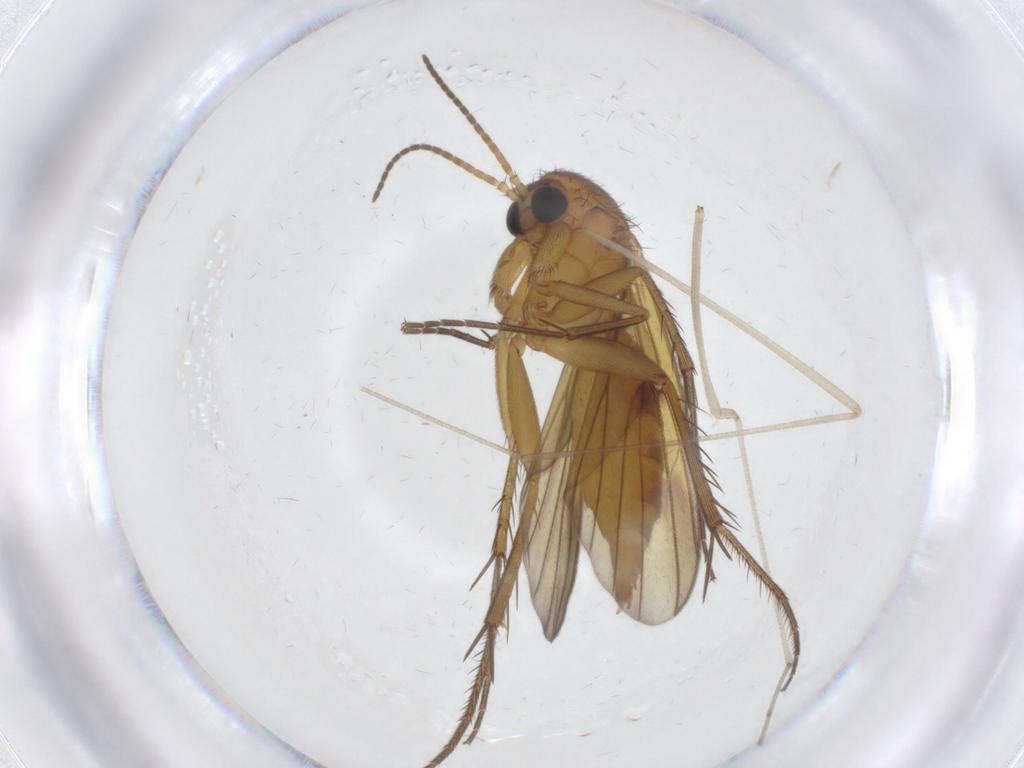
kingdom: Animalia
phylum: Arthropoda
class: Insecta
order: Diptera
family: Mycetophilidae
